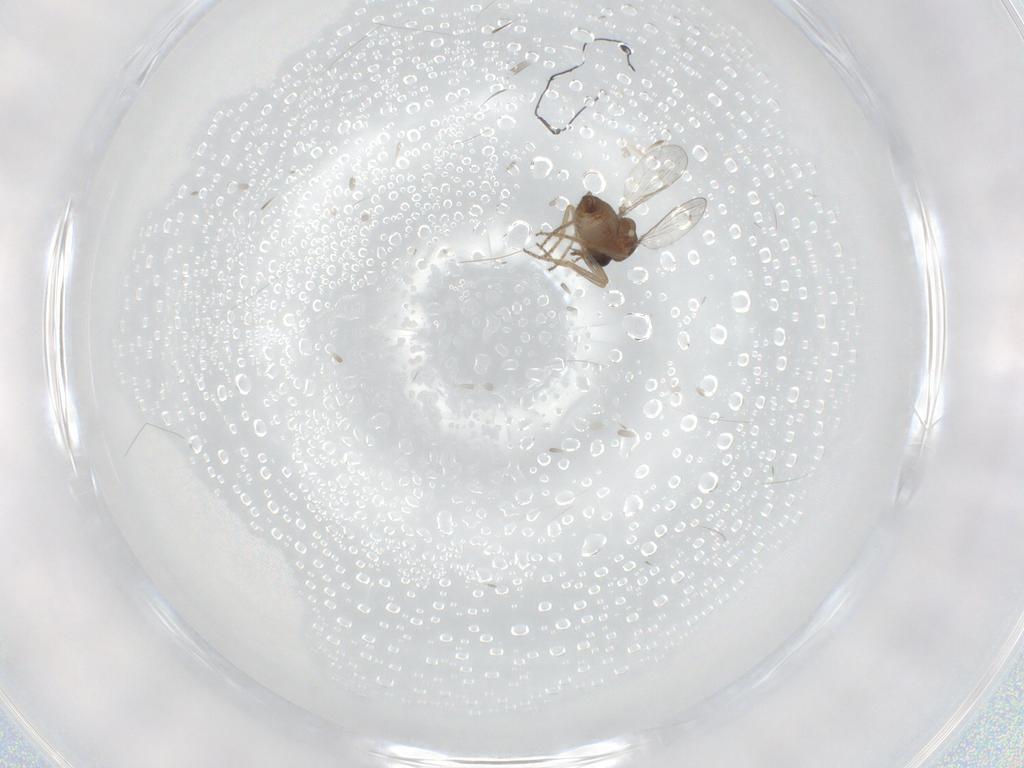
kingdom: Animalia
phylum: Arthropoda
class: Insecta
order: Diptera
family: Ceratopogonidae
